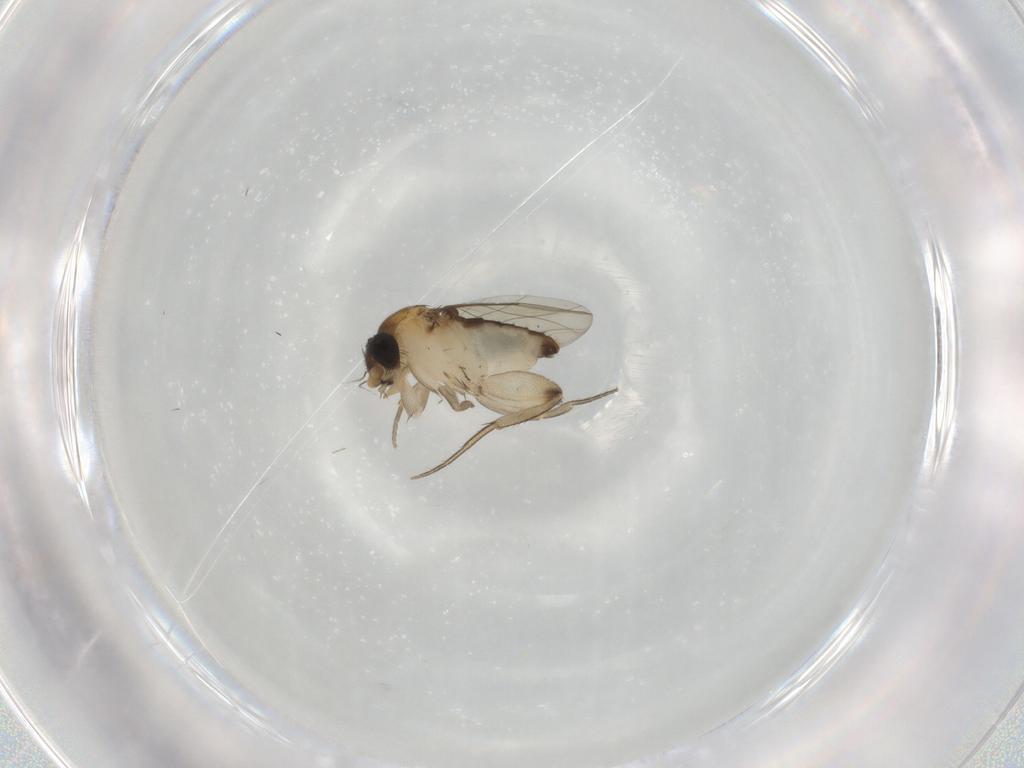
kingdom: Animalia
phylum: Arthropoda
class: Insecta
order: Diptera
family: Phoridae
